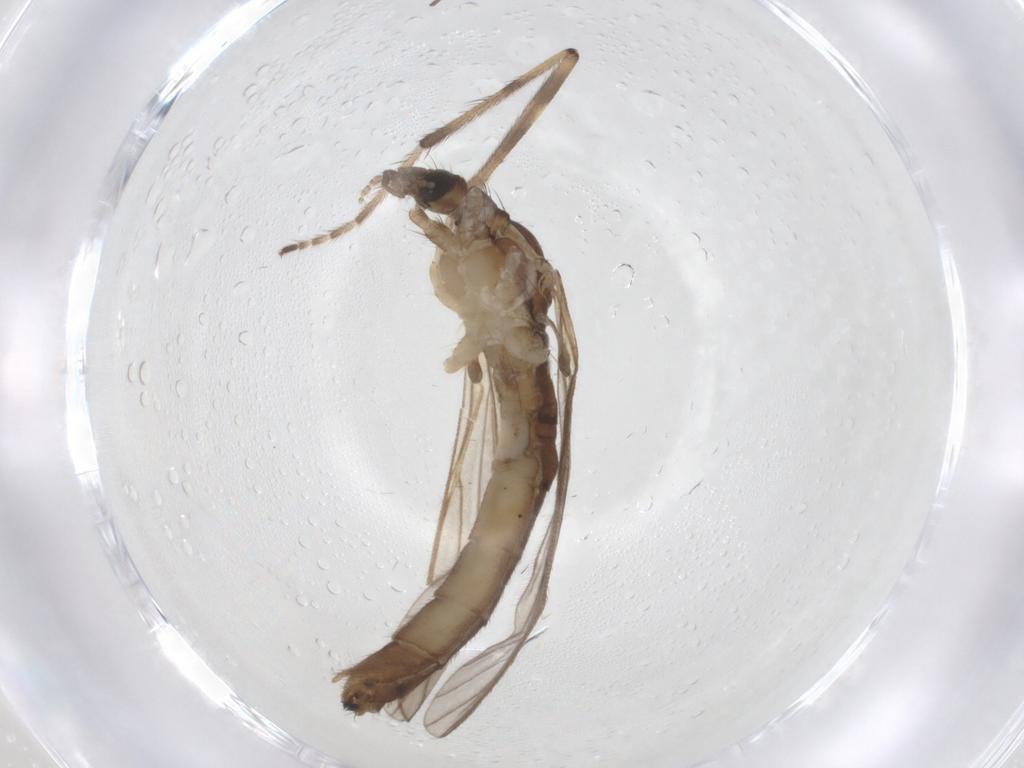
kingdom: Animalia
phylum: Arthropoda
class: Insecta
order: Diptera
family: Limoniidae
